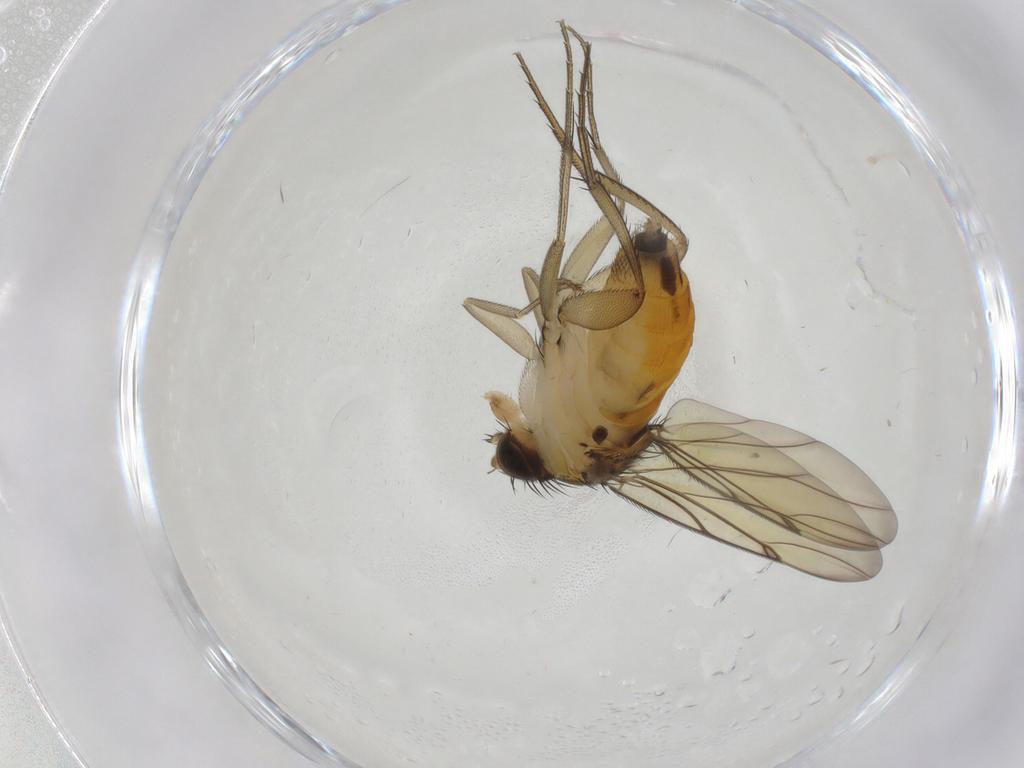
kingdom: Animalia
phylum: Arthropoda
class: Insecta
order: Diptera
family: Phoridae
